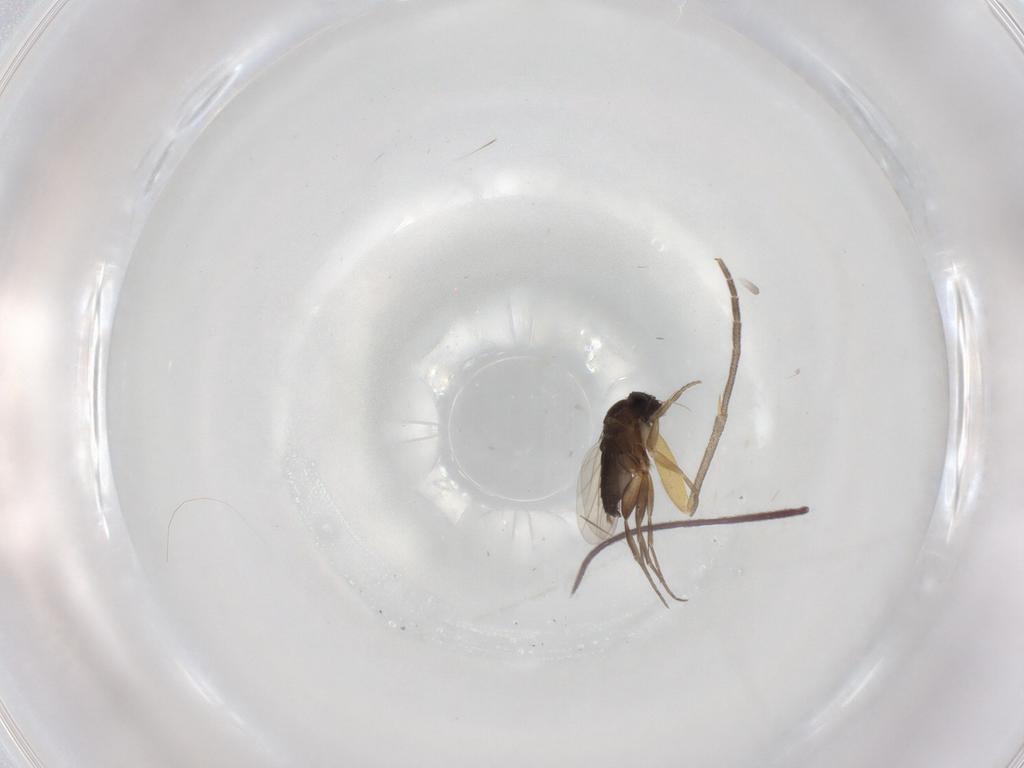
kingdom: Animalia
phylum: Arthropoda
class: Insecta
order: Diptera
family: Phoridae
